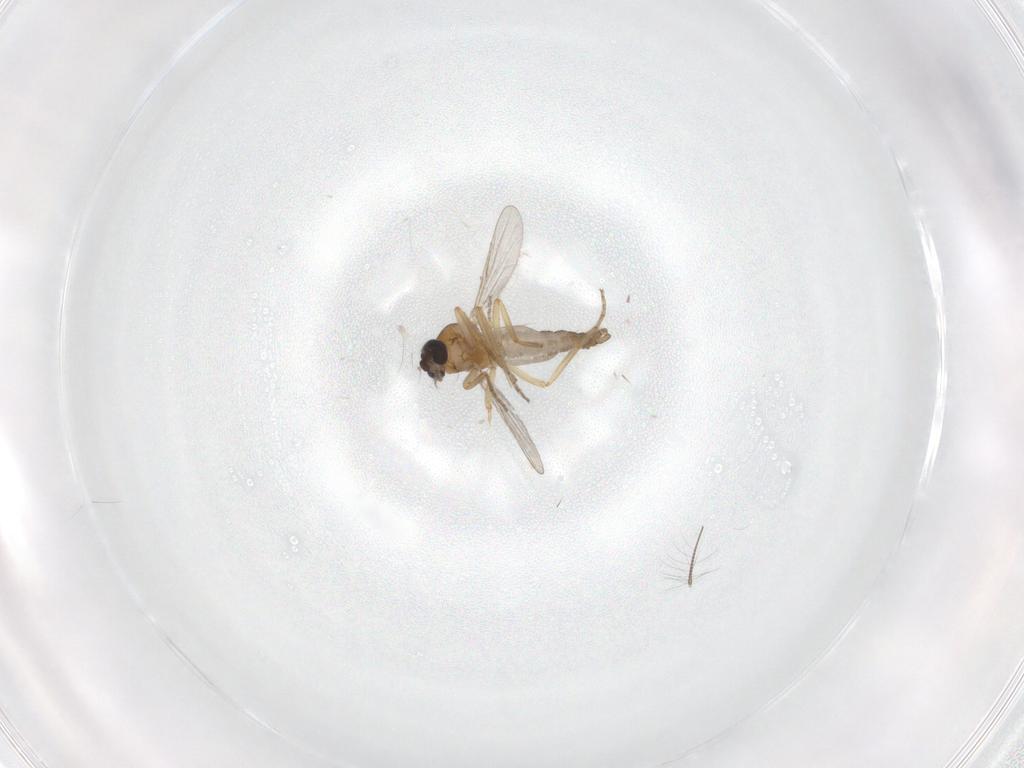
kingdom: Animalia
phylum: Arthropoda
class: Insecta
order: Diptera
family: Ceratopogonidae
